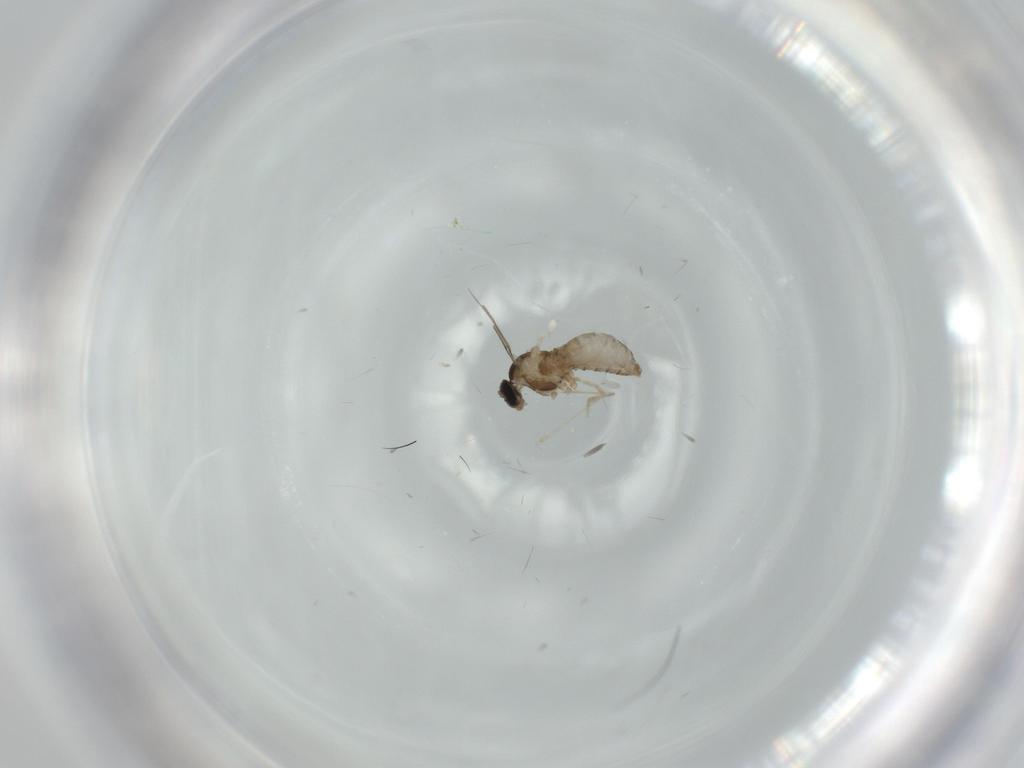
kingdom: Animalia
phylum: Arthropoda
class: Insecta
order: Diptera
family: Cecidomyiidae
